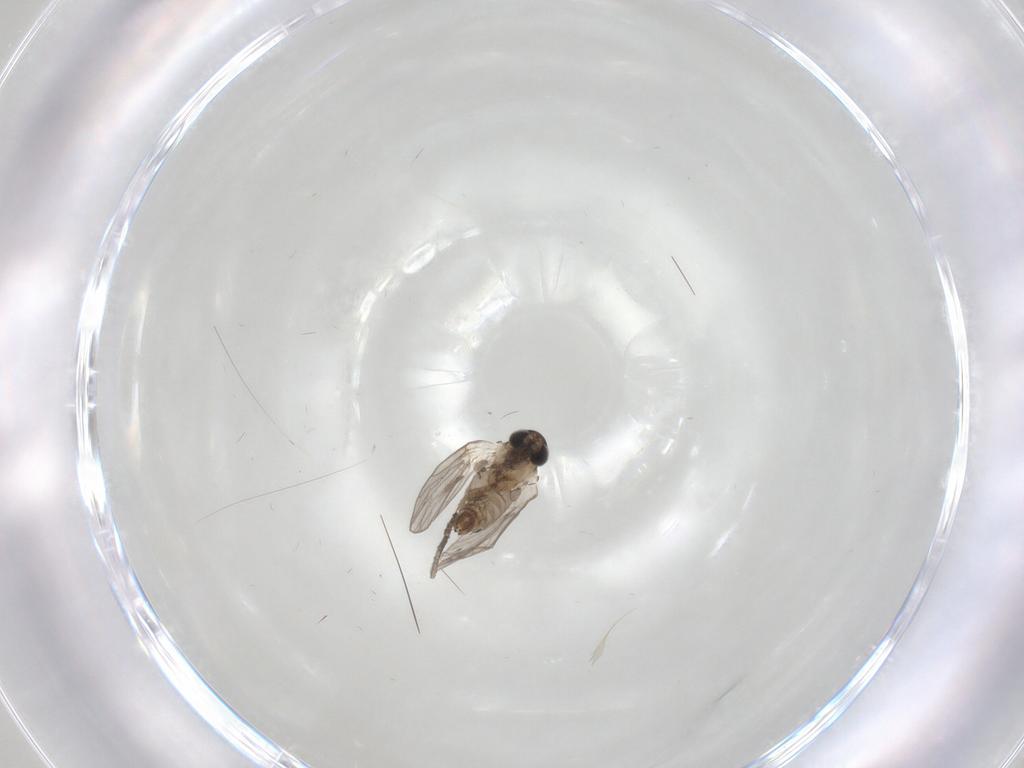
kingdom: Animalia
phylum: Arthropoda
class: Insecta
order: Diptera
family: Psychodidae
